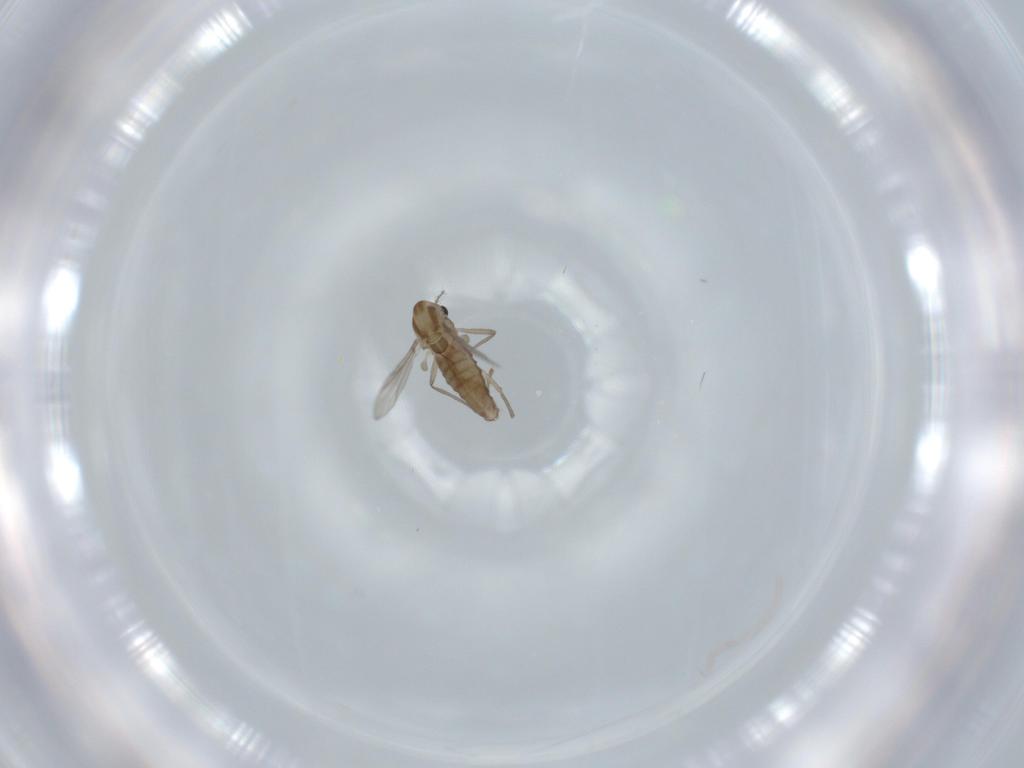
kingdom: Animalia
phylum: Arthropoda
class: Insecta
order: Diptera
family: Chironomidae
